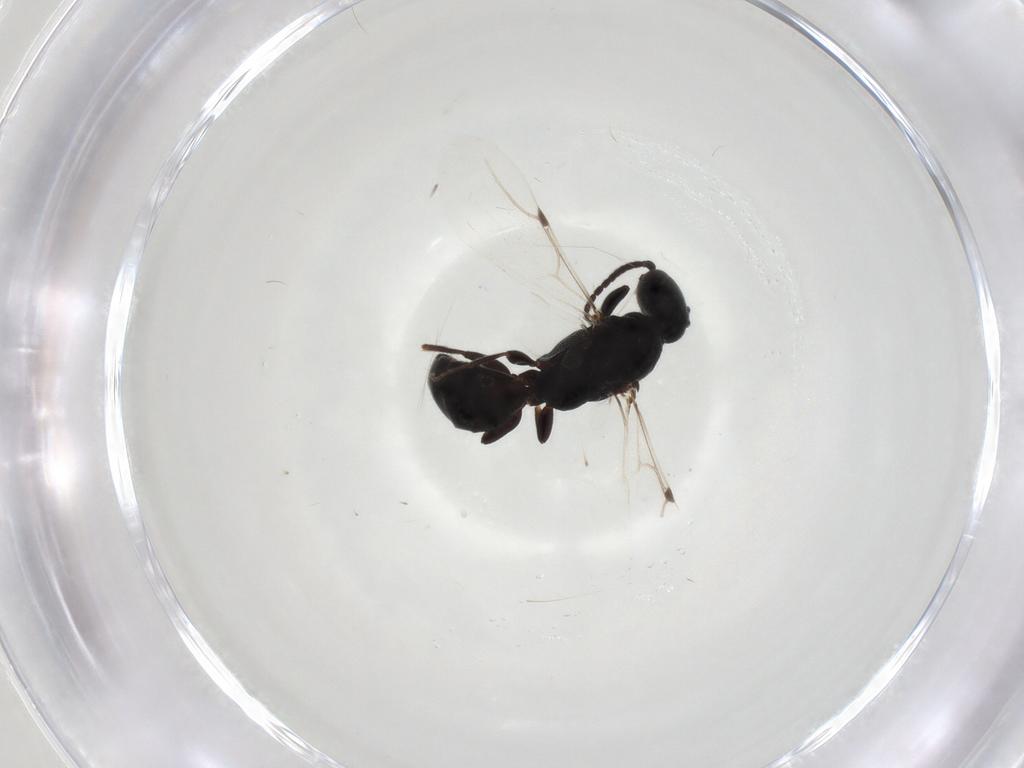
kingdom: Animalia
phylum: Arthropoda
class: Insecta
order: Hymenoptera
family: Bethylidae
